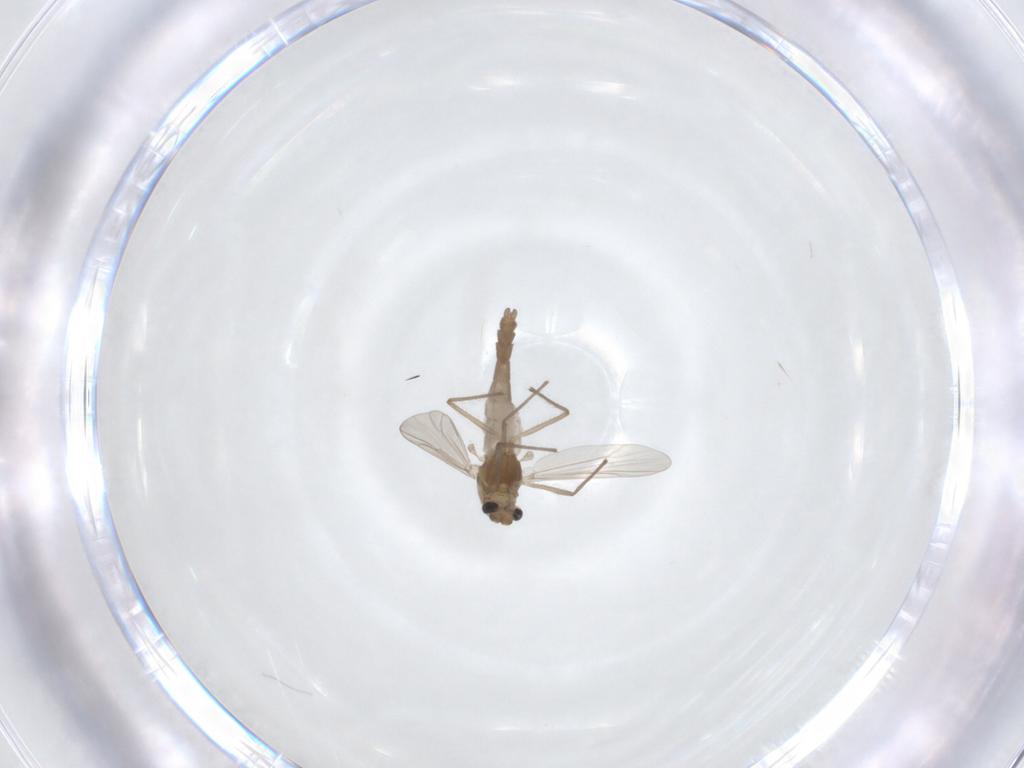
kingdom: Animalia
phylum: Arthropoda
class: Insecta
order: Diptera
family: Chironomidae
